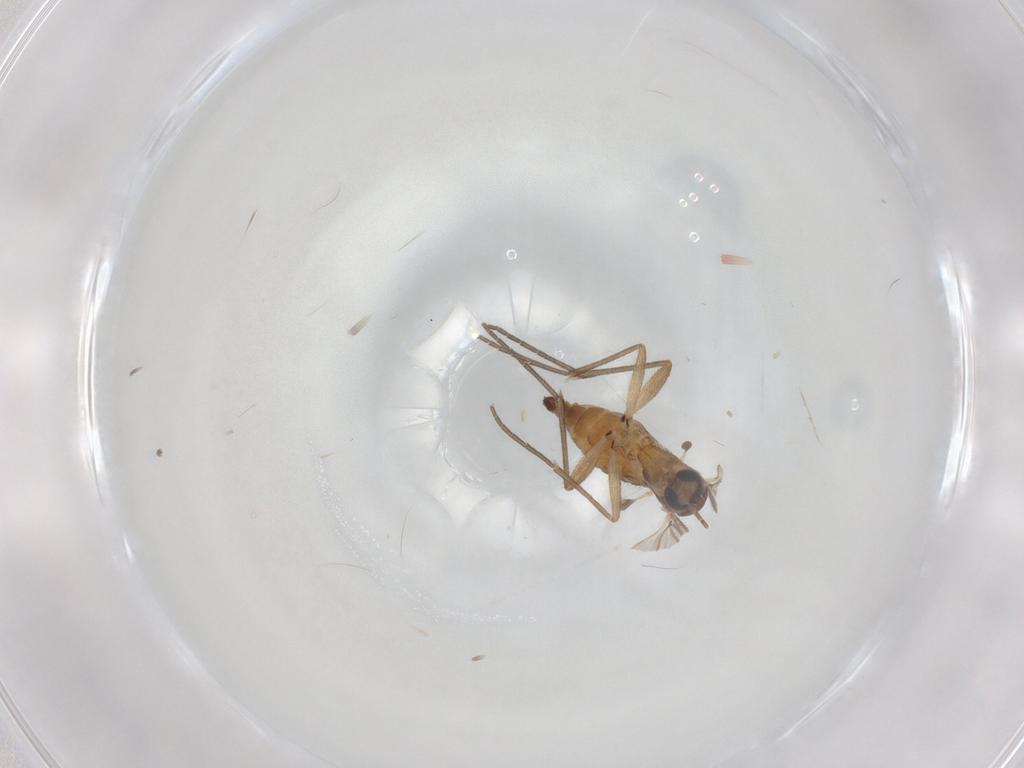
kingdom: Animalia
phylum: Arthropoda
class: Insecta
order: Diptera
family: Sciaridae
